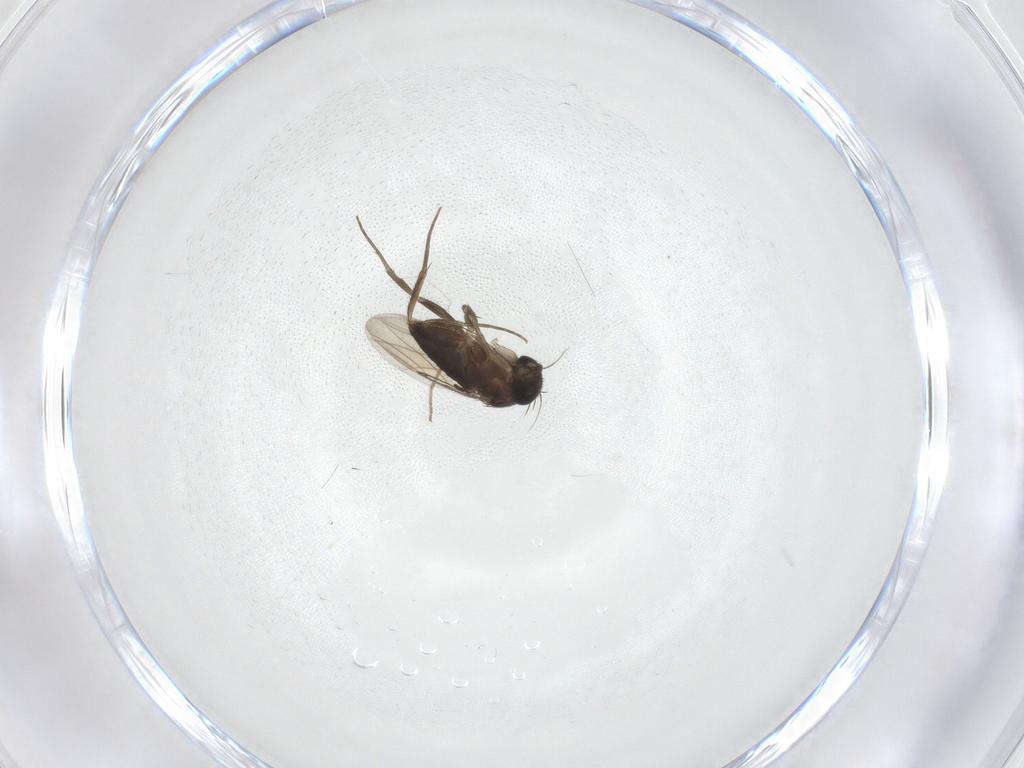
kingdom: Animalia
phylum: Arthropoda
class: Insecta
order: Diptera
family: Phoridae
